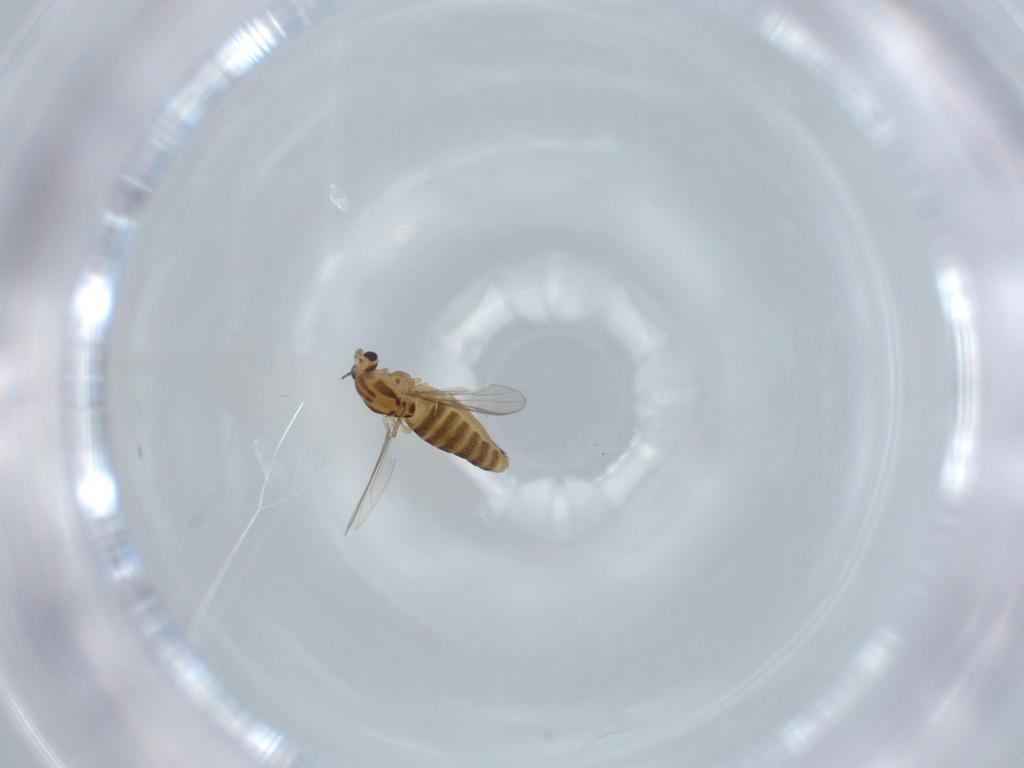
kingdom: Animalia
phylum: Arthropoda
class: Insecta
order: Diptera
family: Chironomidae
